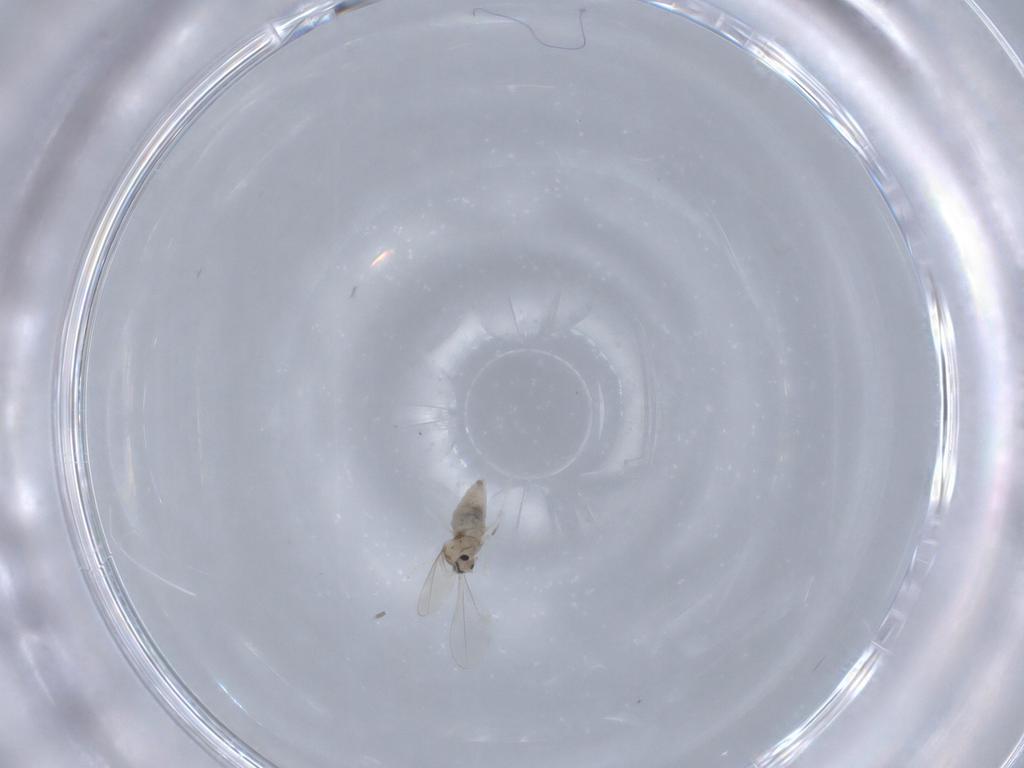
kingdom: Animalia
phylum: Arthropoda
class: Insecta
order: Diptera
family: Cecidomyiidae
